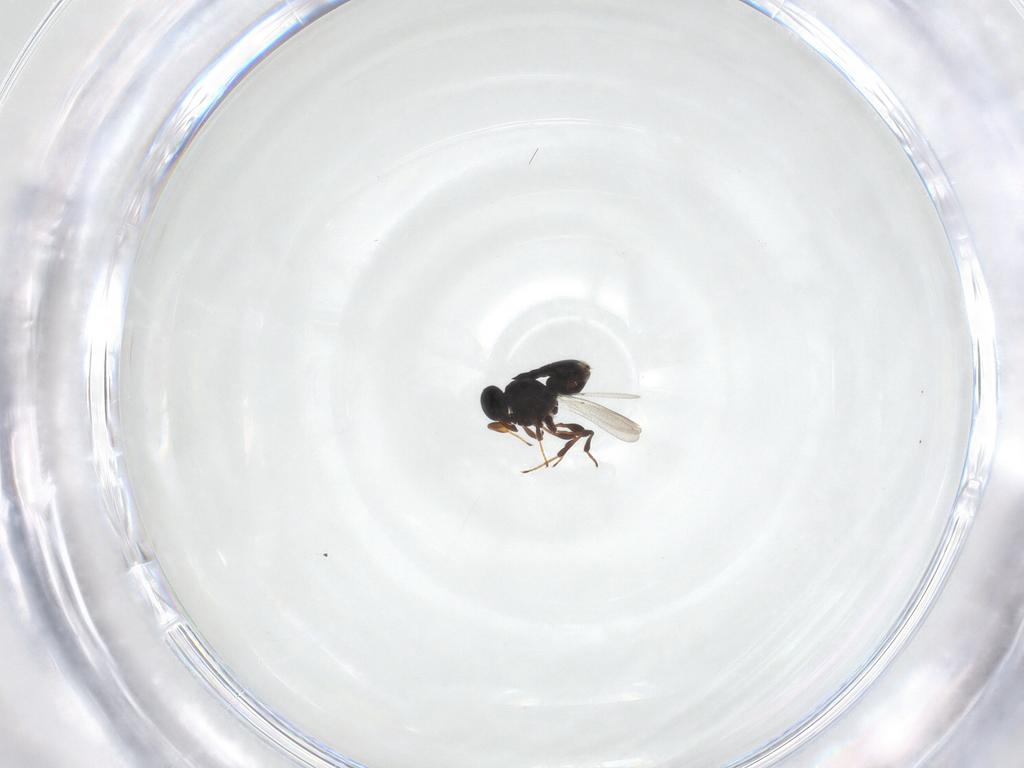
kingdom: Animalia
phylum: Arthropoda
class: Insecta
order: Hymenoptera
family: Platygastridae
